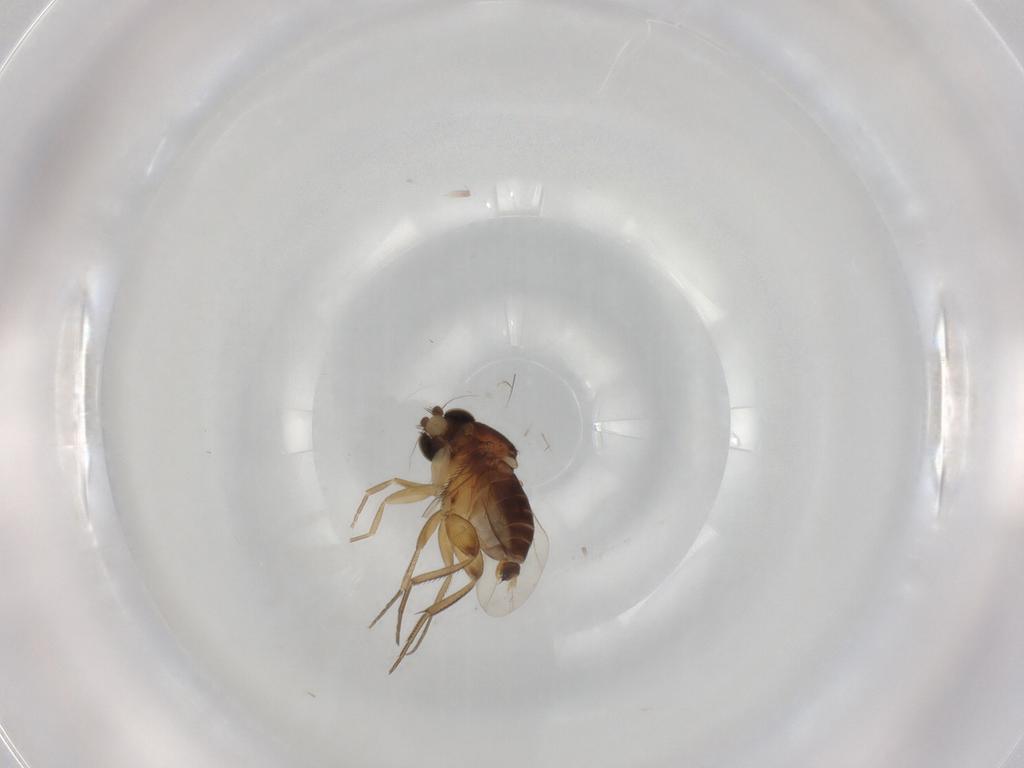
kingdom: Animalia
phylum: Arthropoda
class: Insecta
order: Diptera
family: Phoridae
